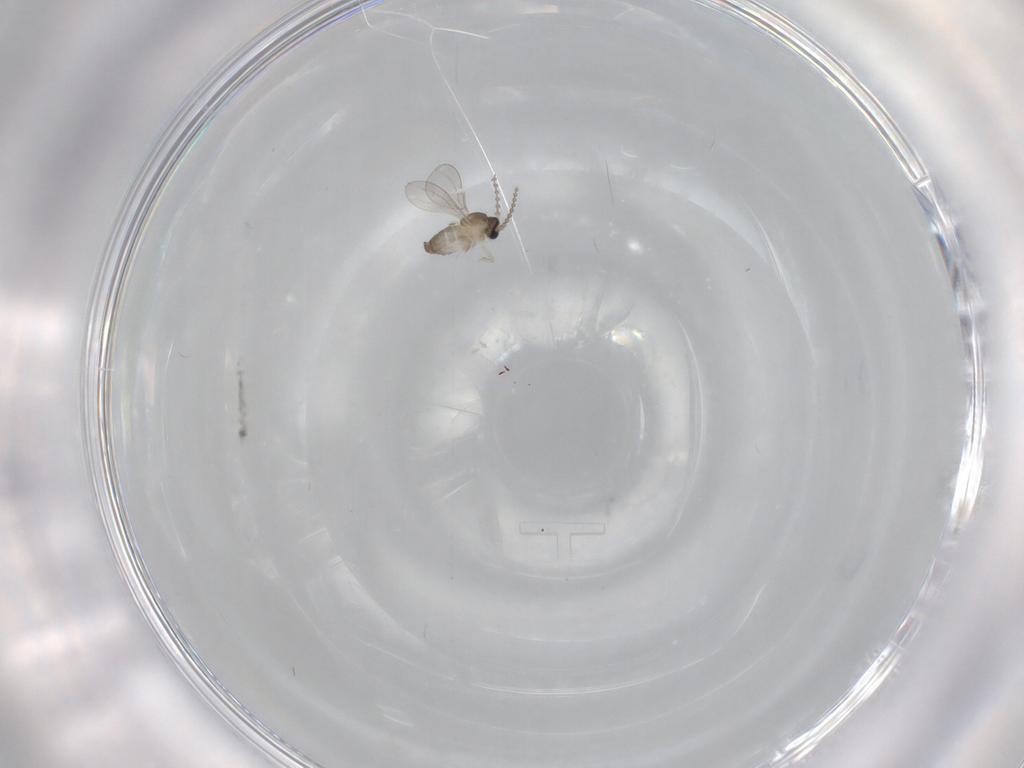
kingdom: Animalia
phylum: Arthropoda
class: Insecta
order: Diptera
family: Cecidomyiidae
